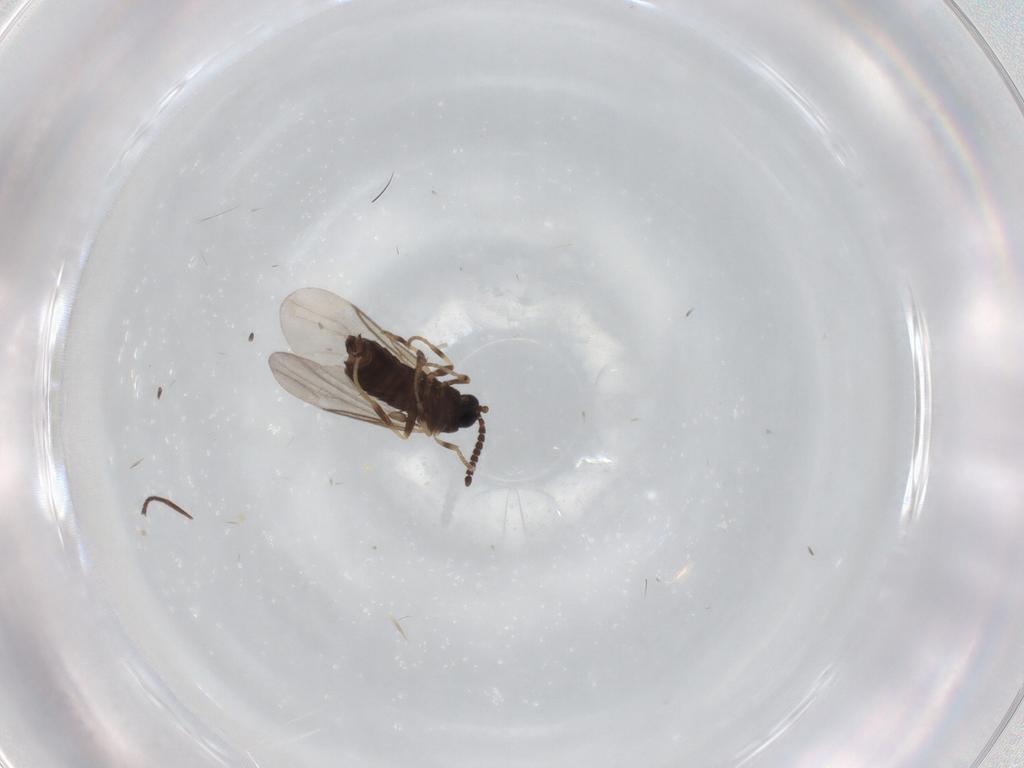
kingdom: Animalia
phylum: Arthropoda
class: Insecta
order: Diptera
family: Scatopsidae
